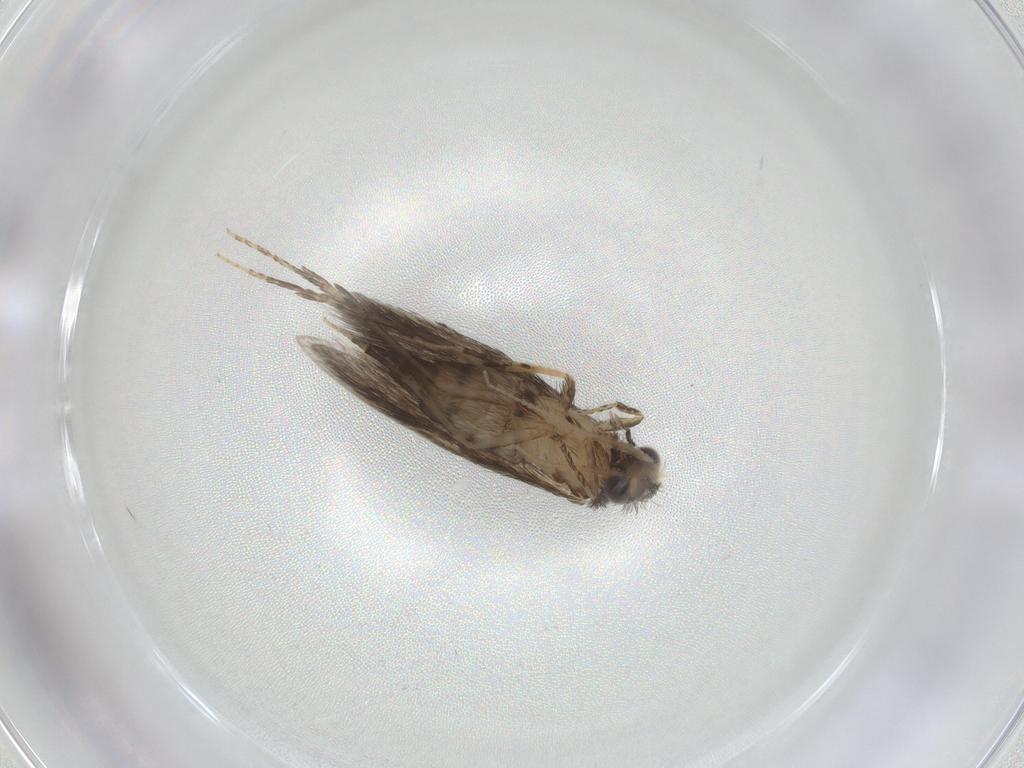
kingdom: Animalia
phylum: Arthropoda
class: Insecta
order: Trichoptera
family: Hydroptilidae
